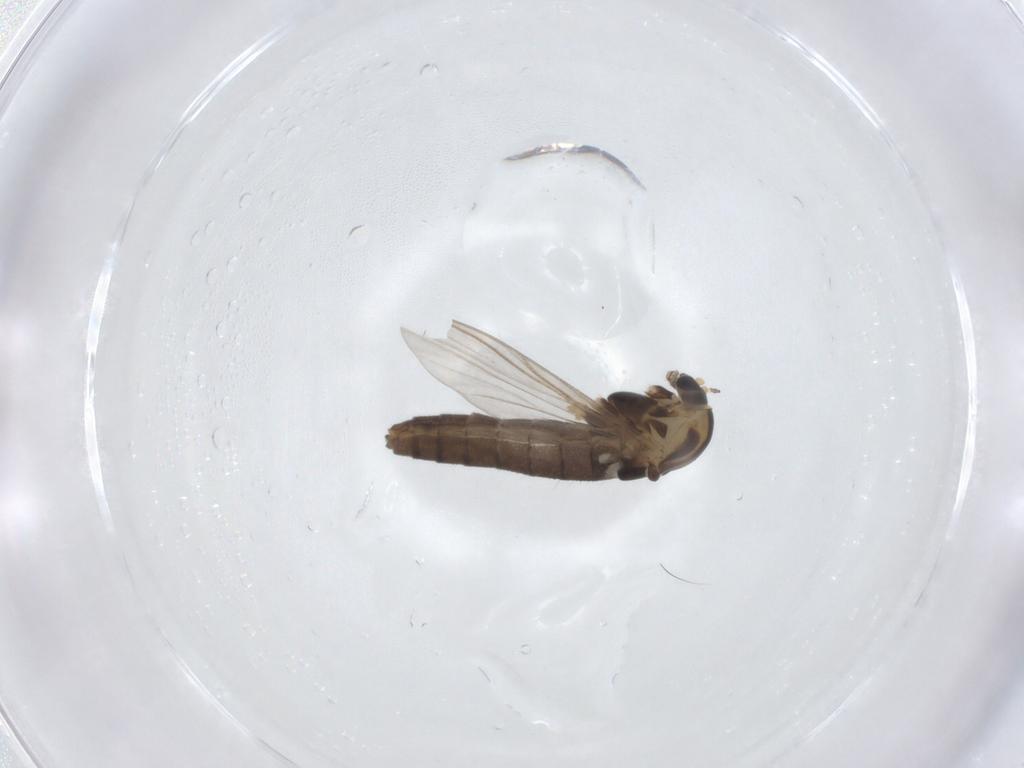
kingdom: Animalia
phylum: Arthropoda
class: Insecta
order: Diptera
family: Chironomidae
